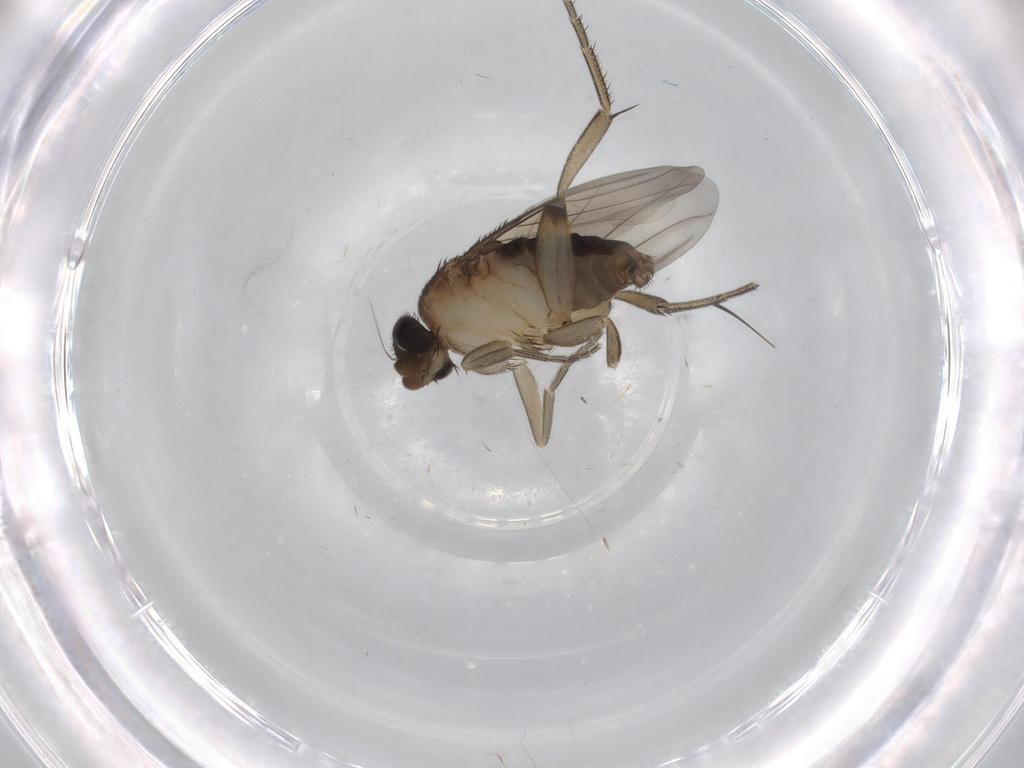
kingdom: Animalia
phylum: Arthropoda
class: Insecta
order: Diptera
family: Phoridae
